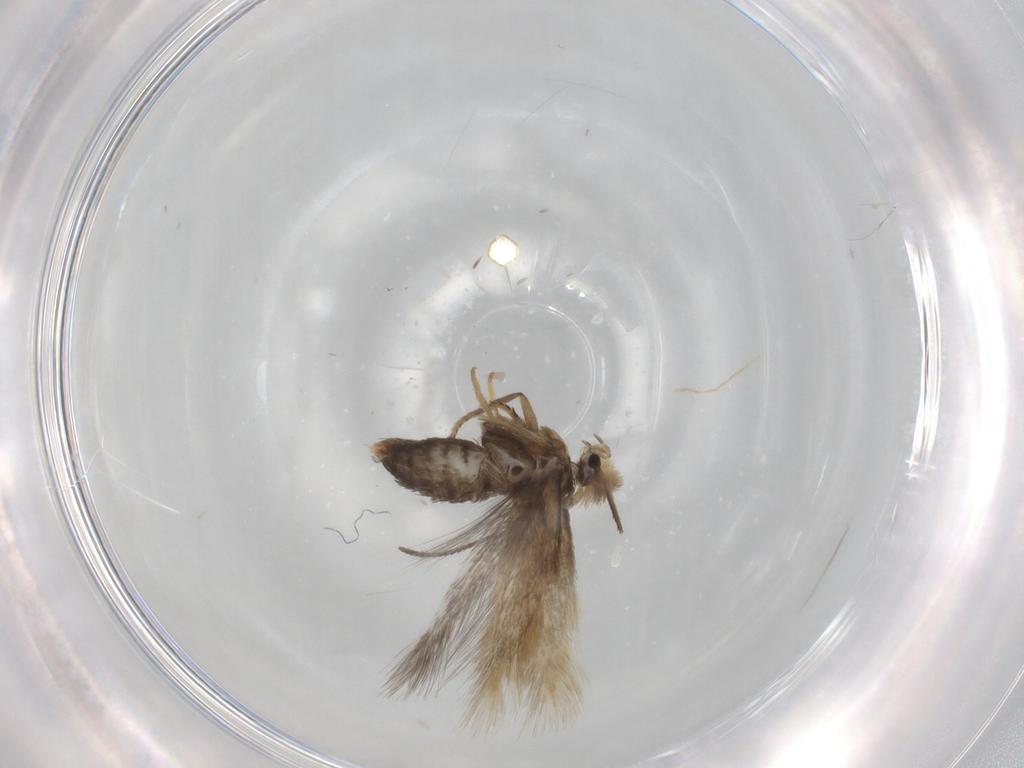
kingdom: Animalia
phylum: Arthropoda
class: Insecta
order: Lepidoptera
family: Nepticulidae
